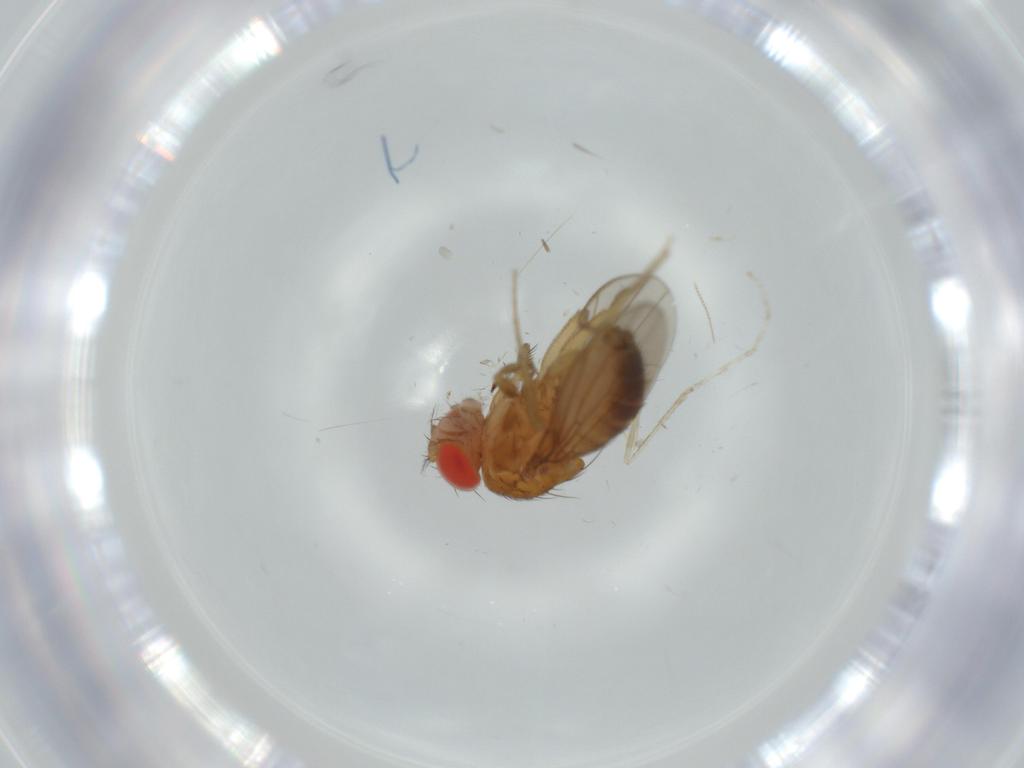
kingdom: Animalia
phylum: Arthropoda
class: Insecta
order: Diptera
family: Drosophilidae
